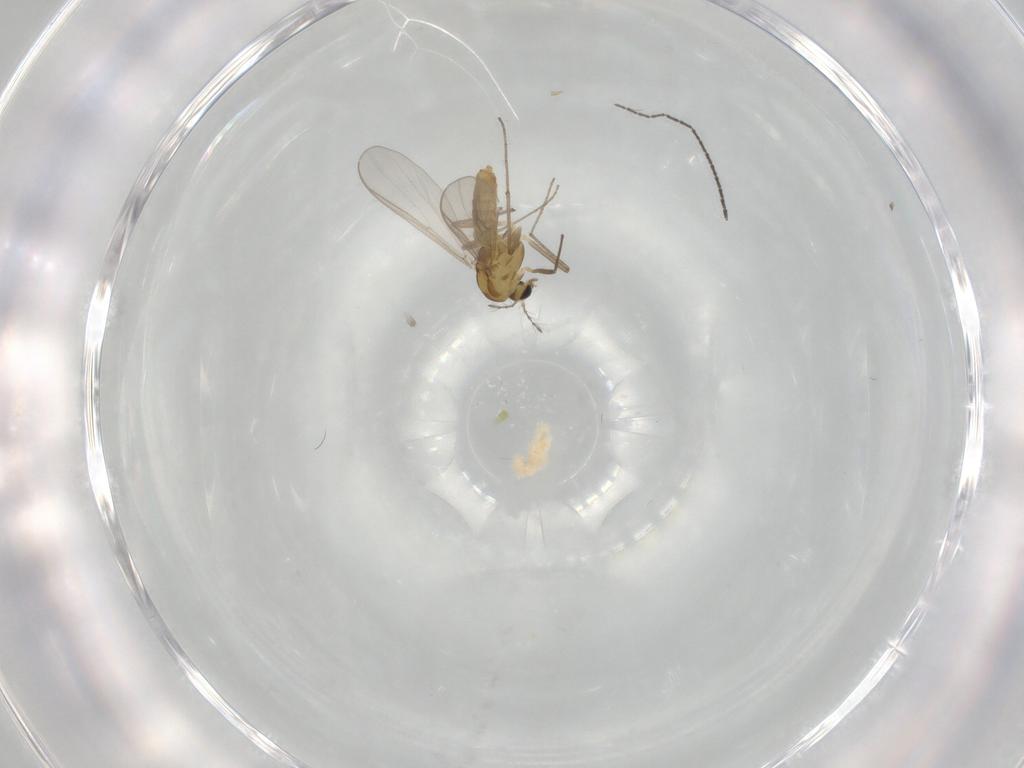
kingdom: Animalia
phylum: Arthropoda
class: Insecta
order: Diptera
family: Chironomidae
